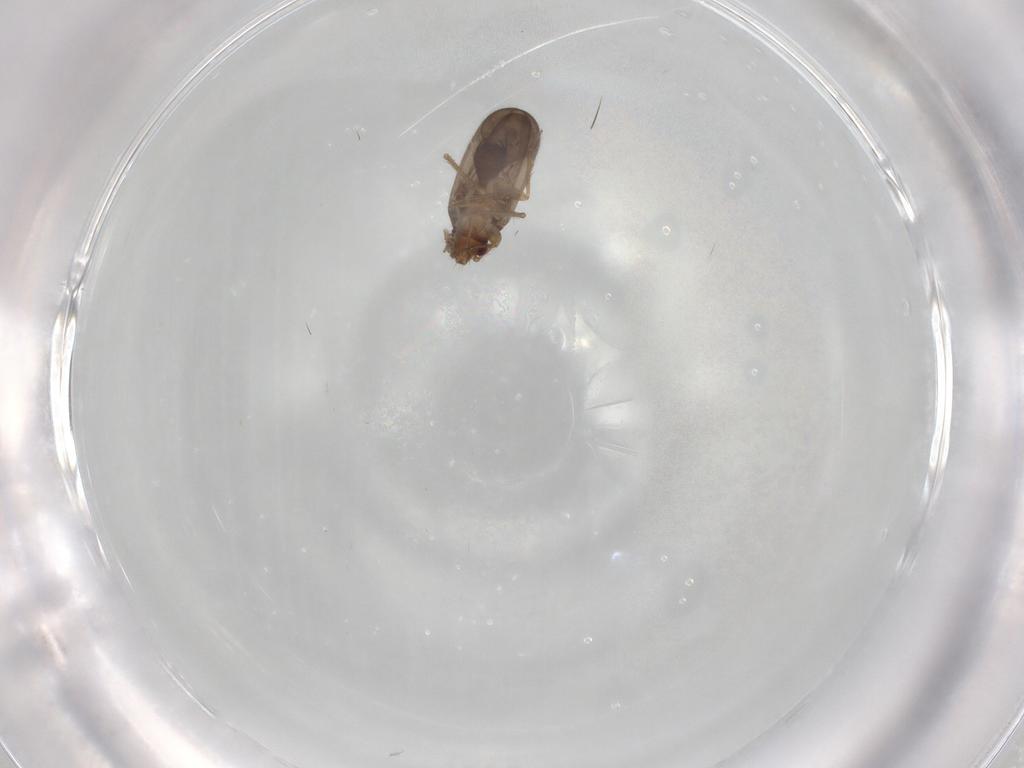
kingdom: Animalia
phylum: Arthropoda
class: Insecta
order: Hemiptera
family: Ceratocombidae
